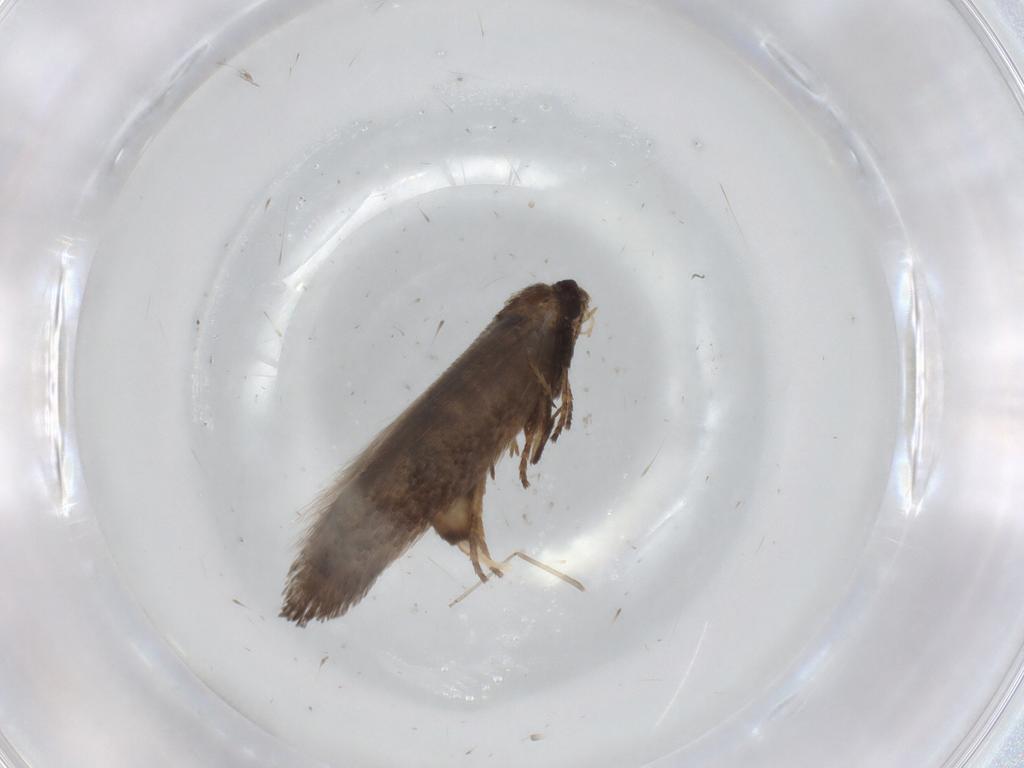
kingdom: Animalia
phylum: Arthropoda
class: Insecta
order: Lepidoptera
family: Nepticulidae
